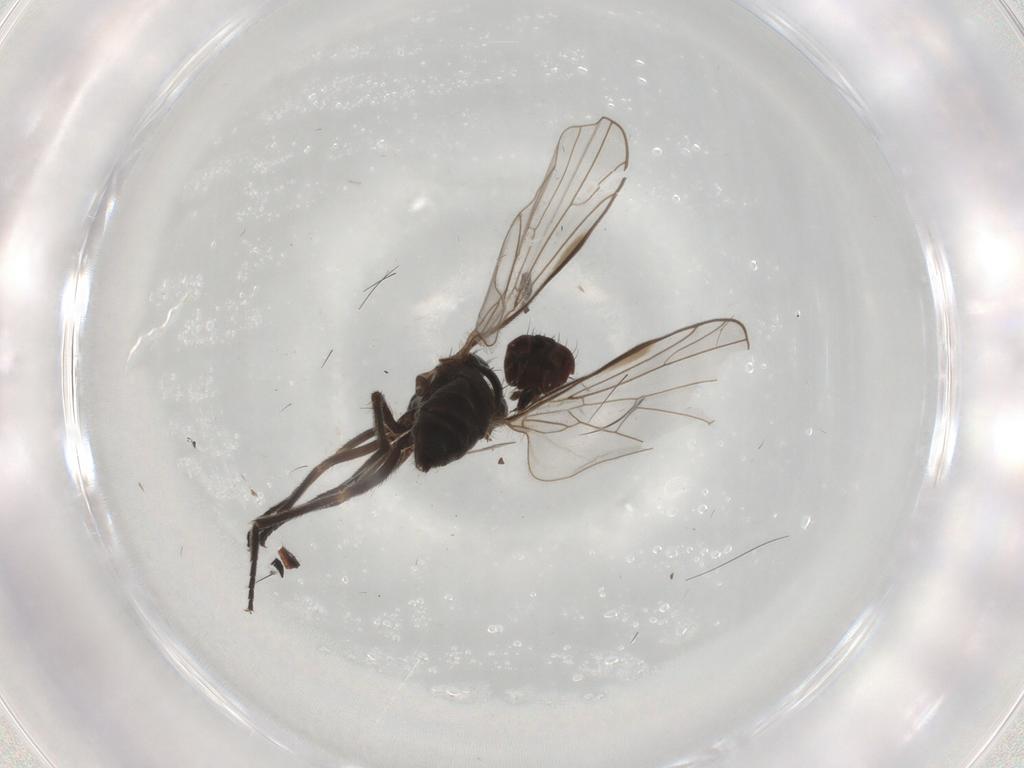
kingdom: Animalia
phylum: Arthropoda
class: Insecta
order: Diptera
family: Empididae
